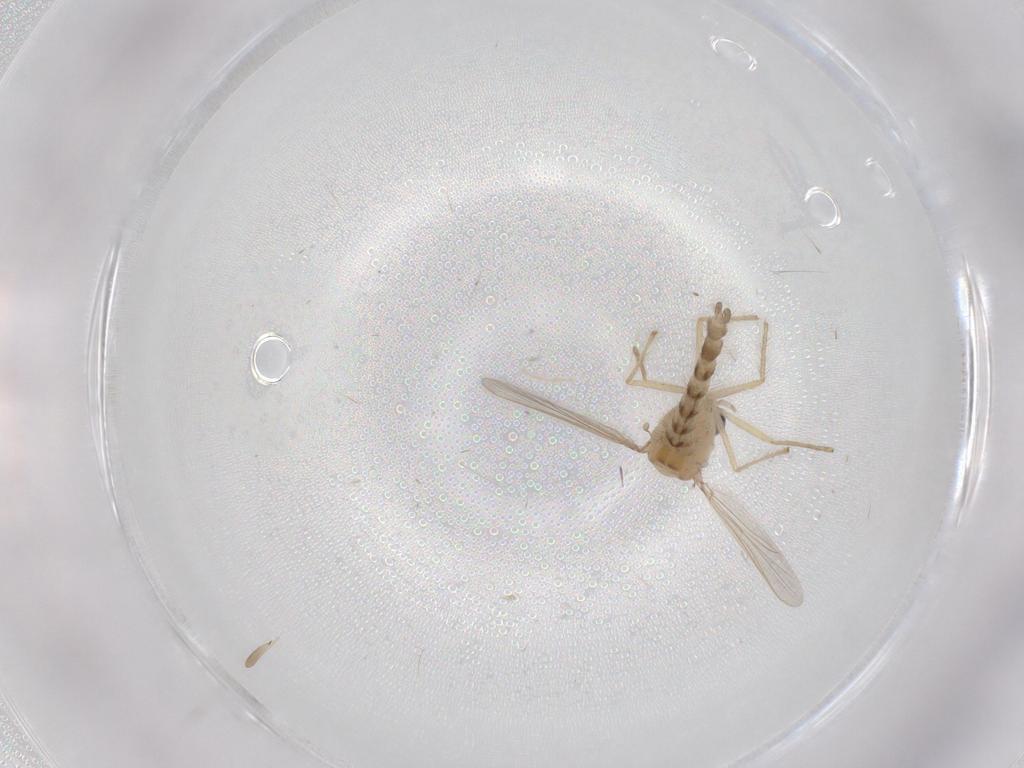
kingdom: Animalia
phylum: Arthropoda
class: Insecta
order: Diptera
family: Chironomidae
